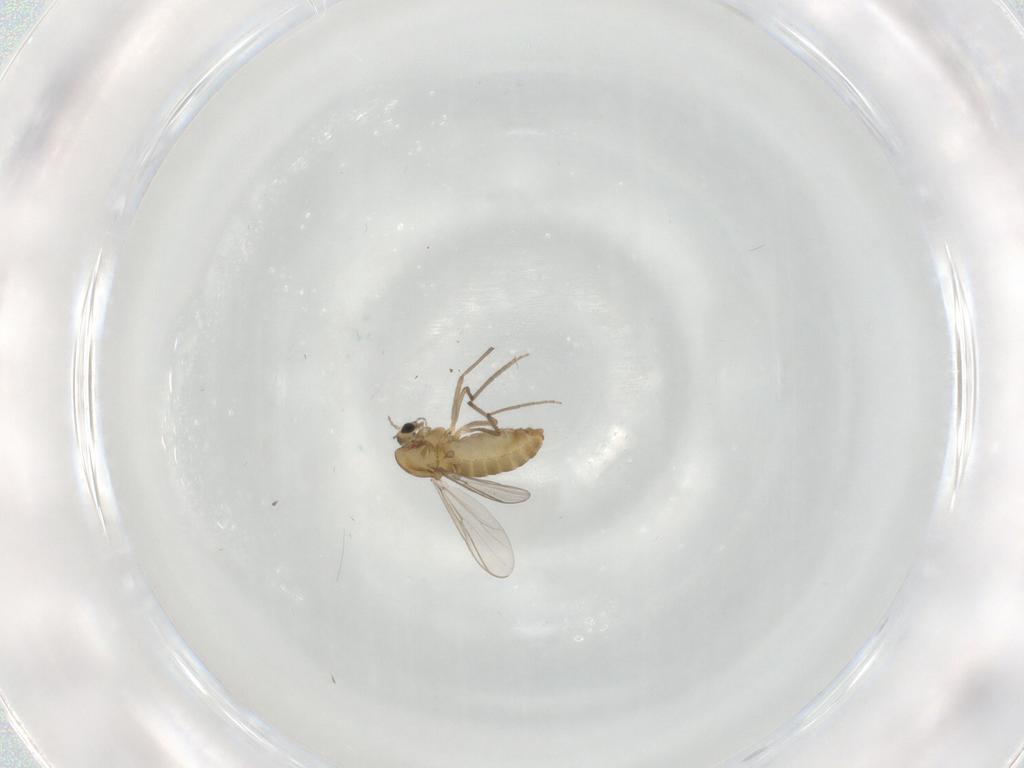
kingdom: Animalia
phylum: Arthropoda
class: Insecta
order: Diptera
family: Chironomidae
